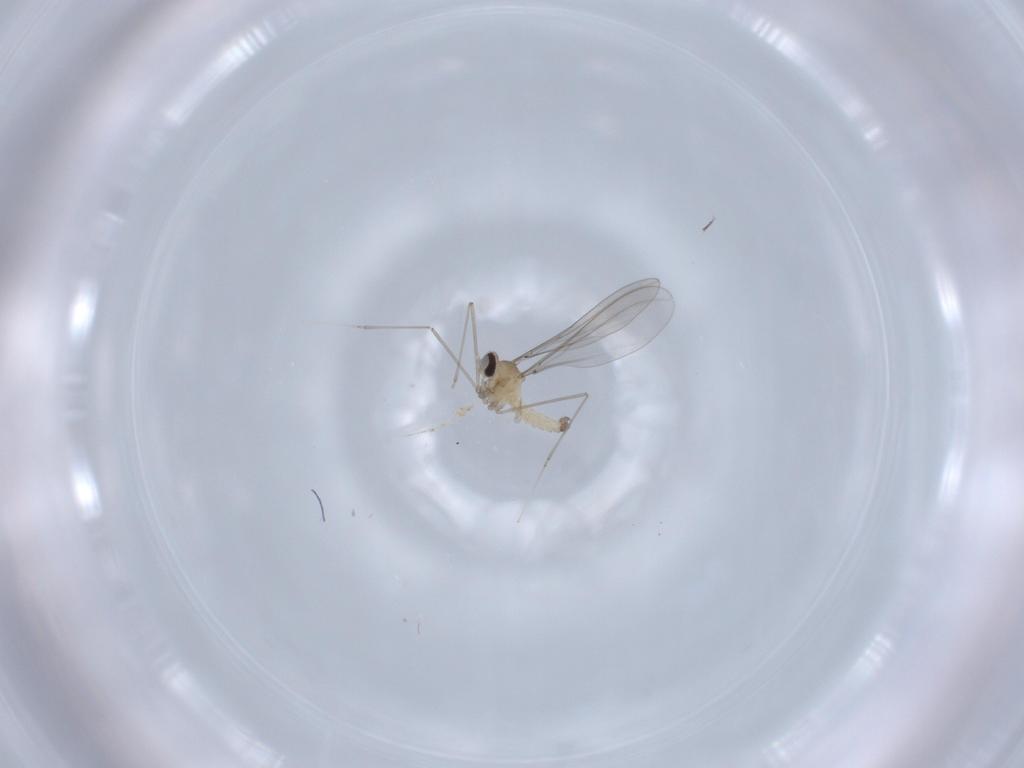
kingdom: Animalia
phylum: Arthropoda
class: Insecta
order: Diptera
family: Cecidomyiidae
